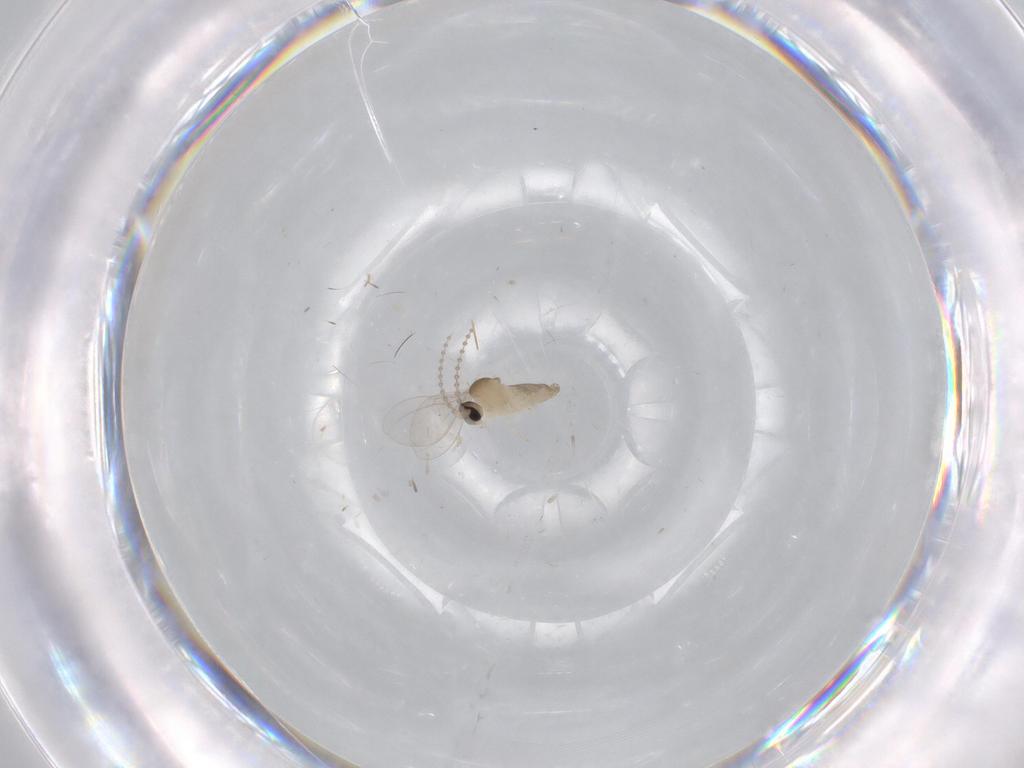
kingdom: Animalia
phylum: Arthropoda
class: Insecta
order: Diptera
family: Cecidomyiidae
